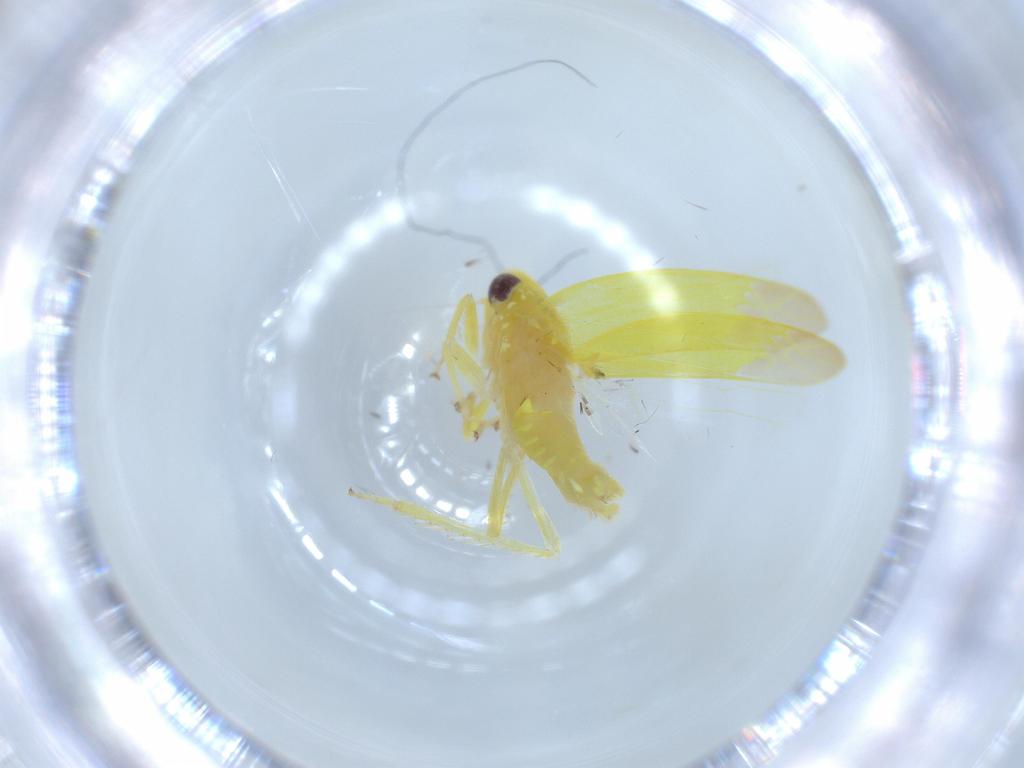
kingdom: Animalia
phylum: Arthropoda
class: Insecta
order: Hemiptera
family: Cicadellidae
